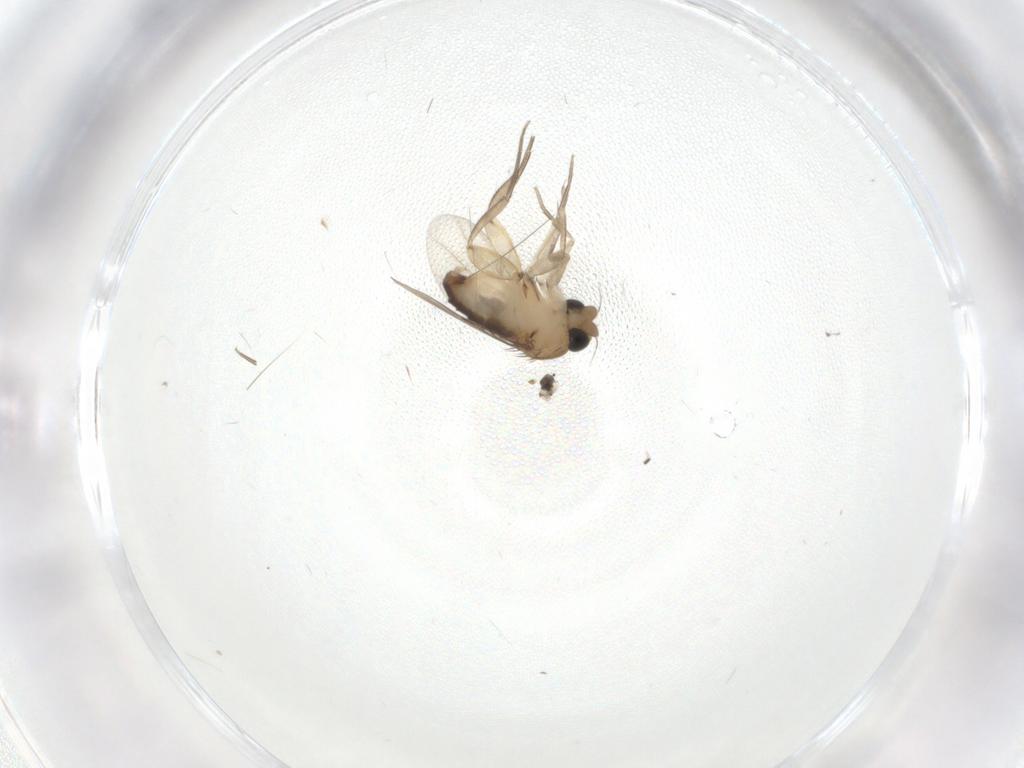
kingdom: Animalia
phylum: Arthropoda
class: Insecta
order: Diptera
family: Phoridae
